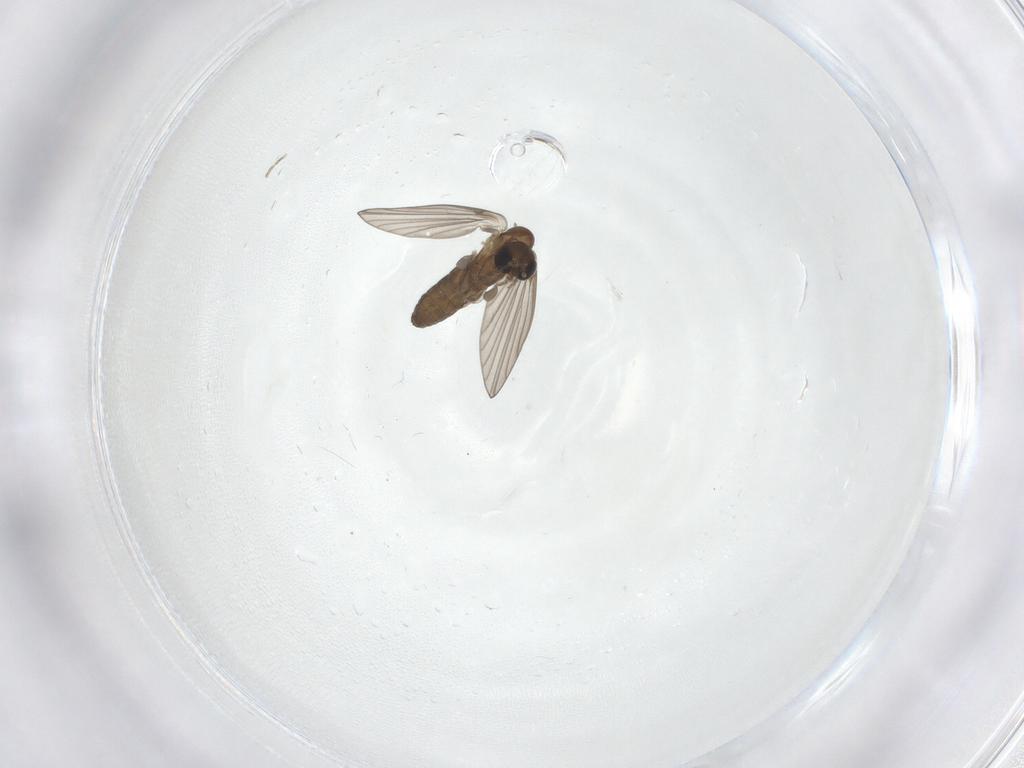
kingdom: Animalia
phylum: Arthropoda
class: Insecta
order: Diptera
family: Psychodidae
